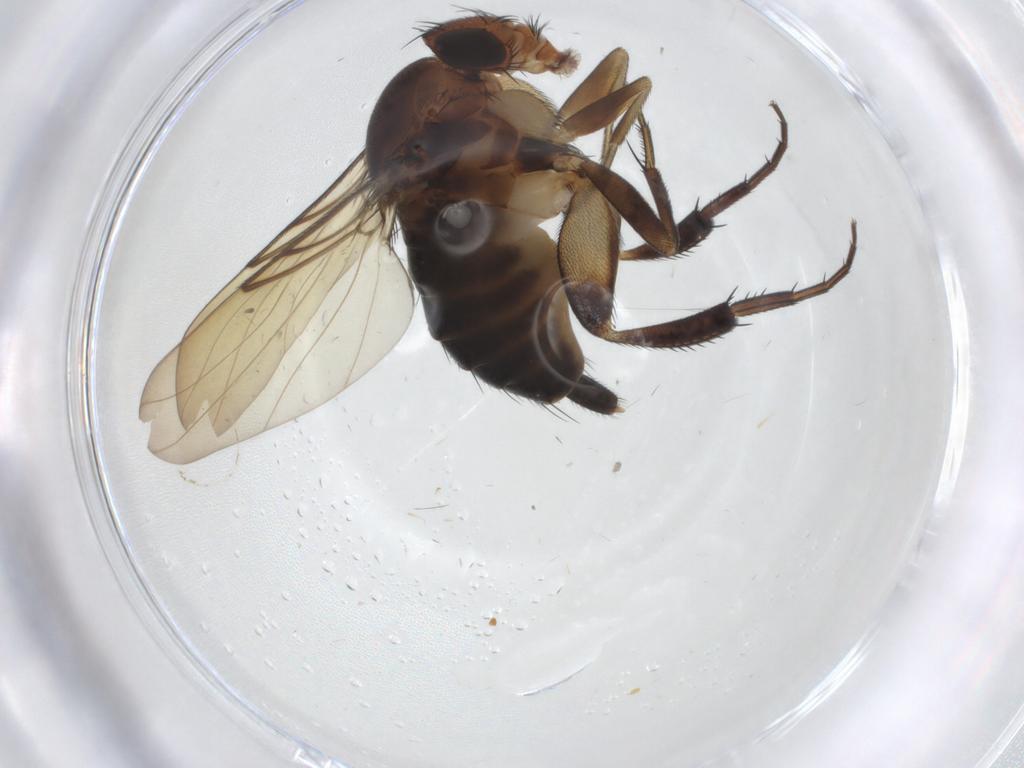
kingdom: Animalia
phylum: Arthropoda
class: Insecta
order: Diptera
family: Phoridae
